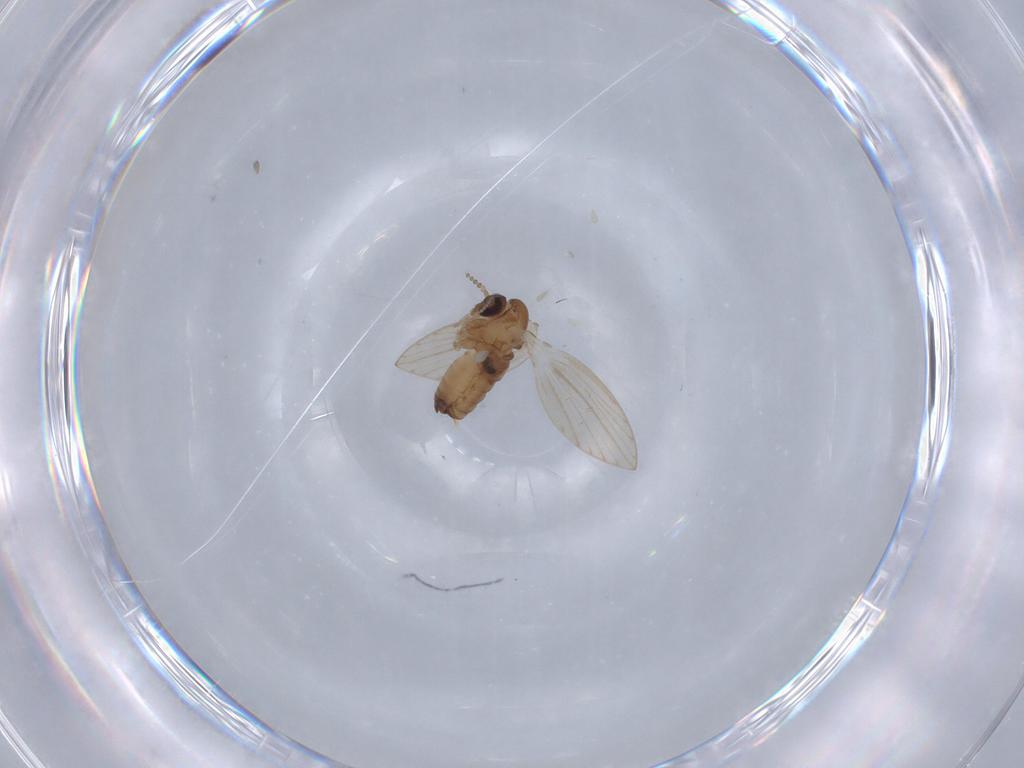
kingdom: Animalia
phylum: Arthropoda
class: Insecta
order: Diptera
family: Psychodidae
